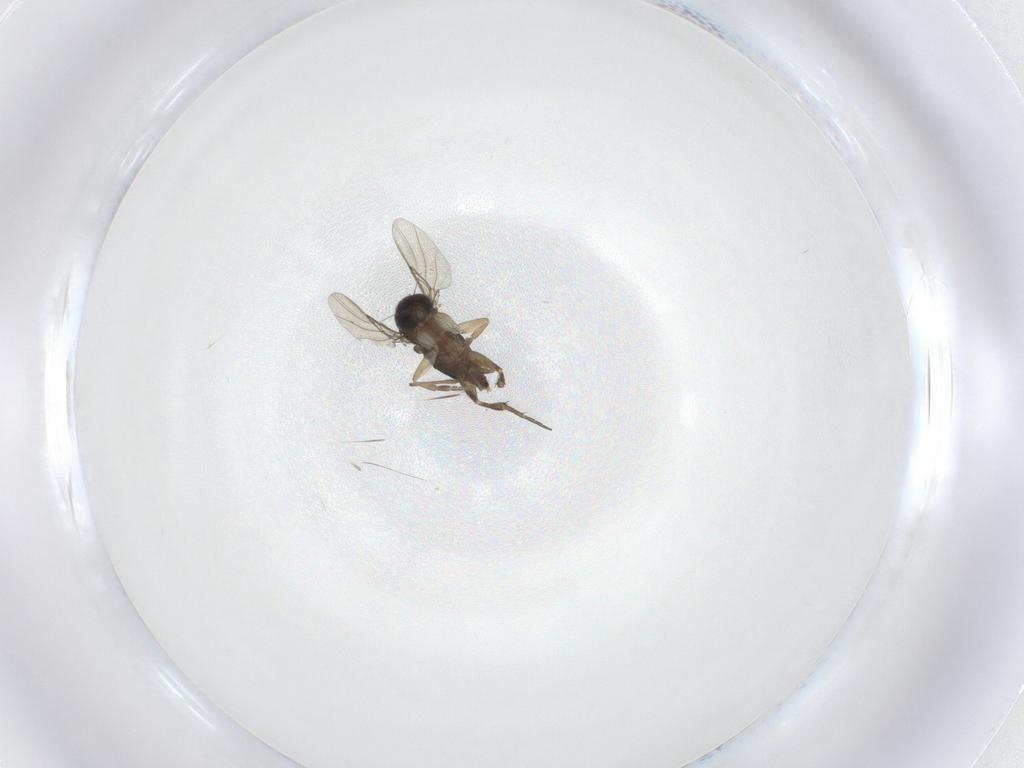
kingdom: Animalia
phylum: Arthropoda
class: Insecta
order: Diptera
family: Phoridae
